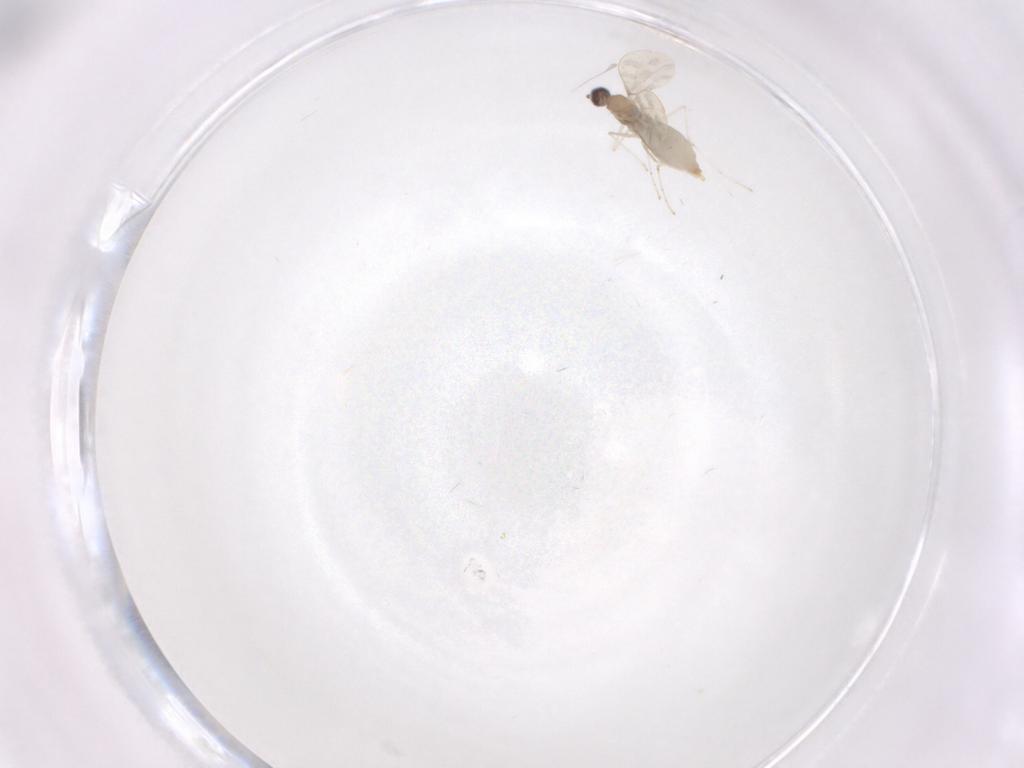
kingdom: Animalia
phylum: Arthropoda
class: Insecta
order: Diptera
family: Cecidomyiidae
